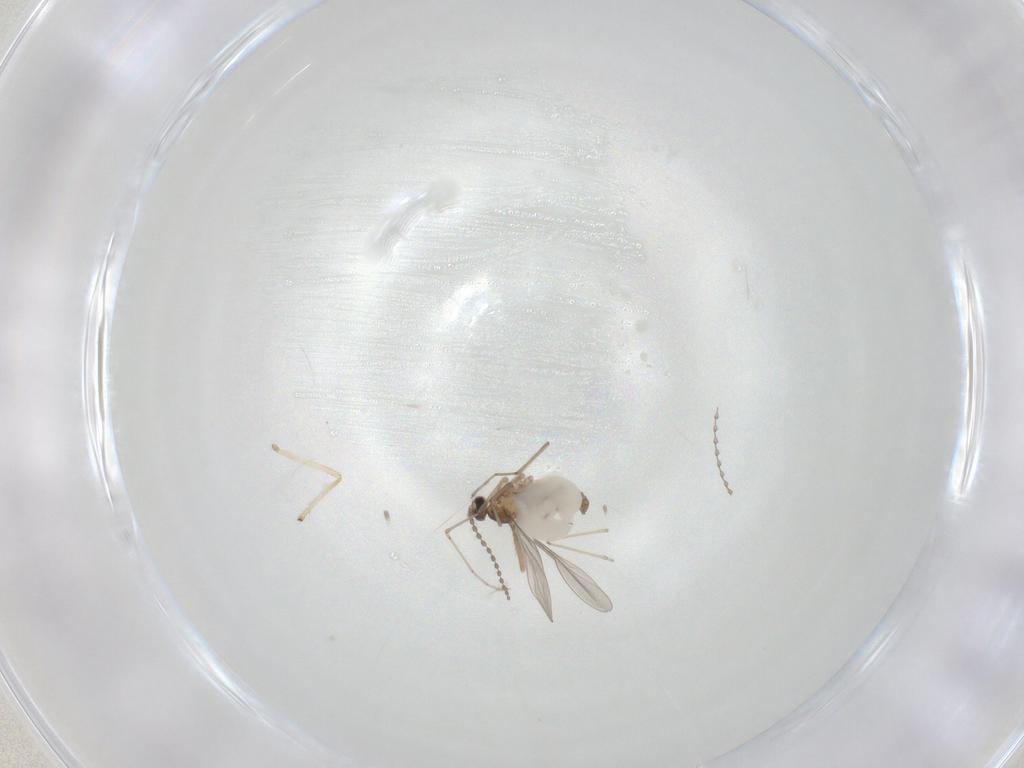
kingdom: Animalia
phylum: Arthropoda
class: Insecta
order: Diptera
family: Cecidomyiidae
